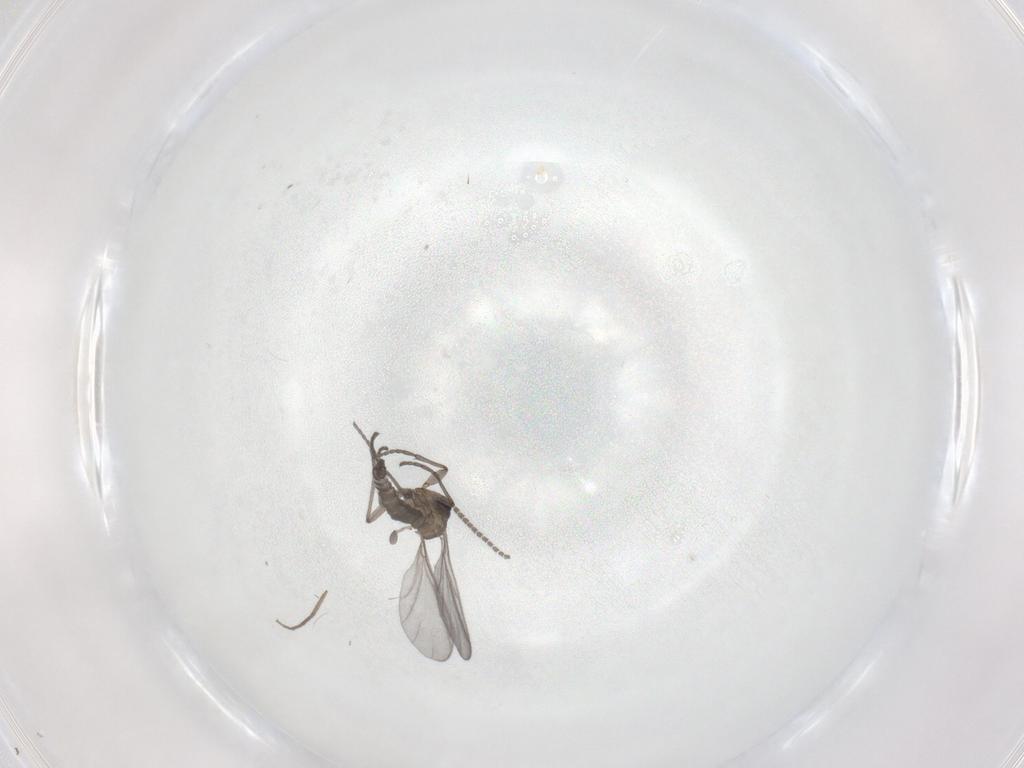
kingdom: Animalia
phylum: Arthropoda
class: Insecta
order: Diptera
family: Sciaridae
